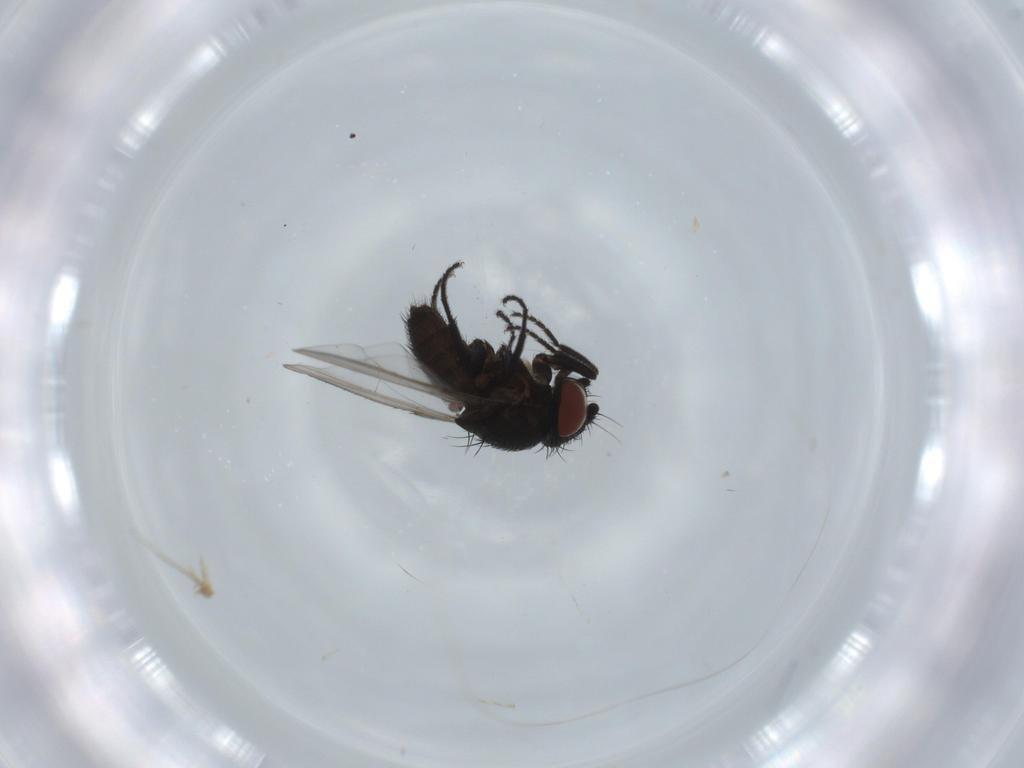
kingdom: Animalia
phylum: Arthropoda
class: Insecta
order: Diptera
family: Milichiidae
